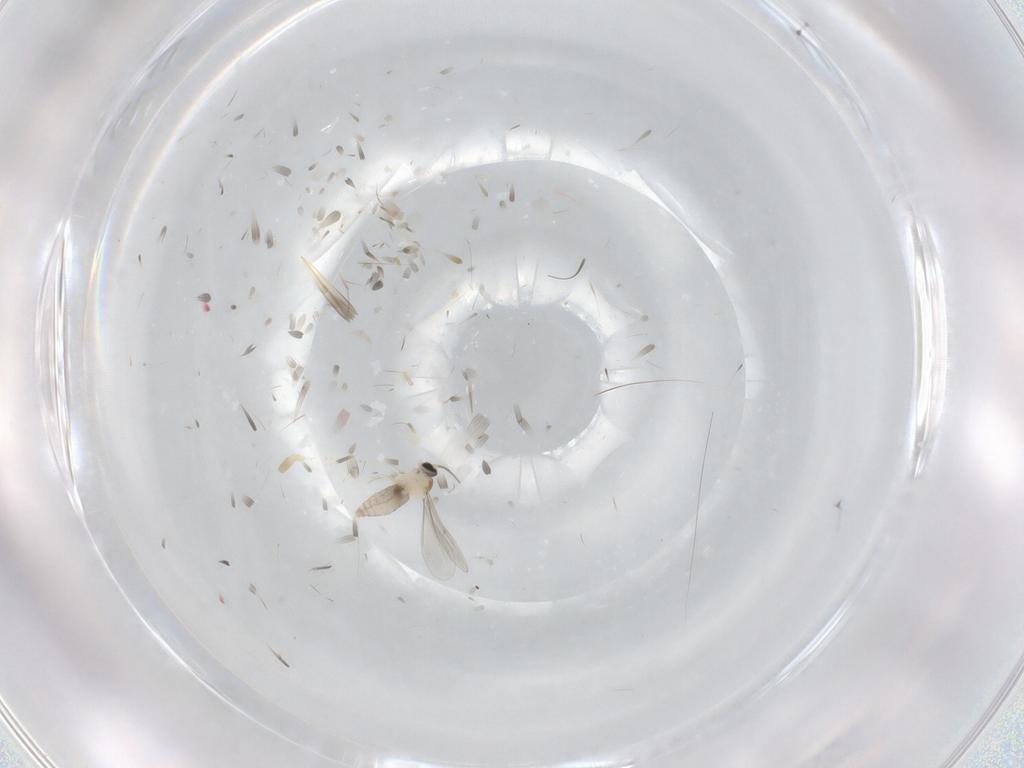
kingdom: Animalia
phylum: Arthropoda
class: Insecta
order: Diptera
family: Sciaridae
